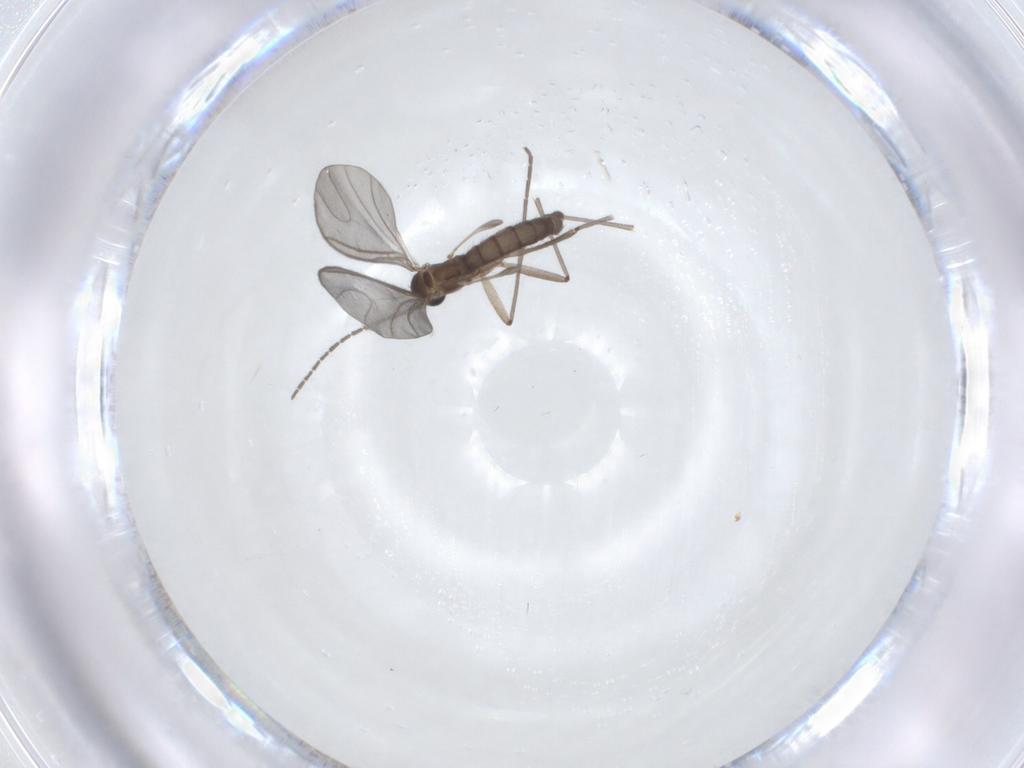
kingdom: Animalia
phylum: Arthropoda
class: Insecta
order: Diptera
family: Sciaridae
